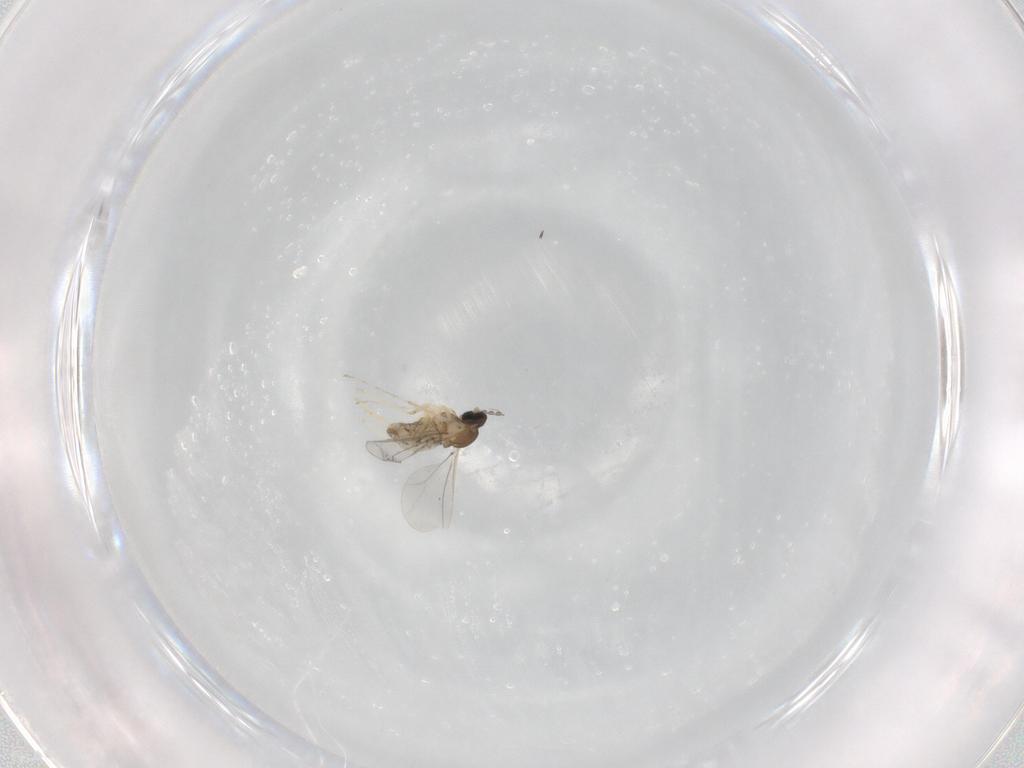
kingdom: Animalia
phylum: Arthropoda
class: Insecta
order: Diptera
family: Cecidomyiidae
